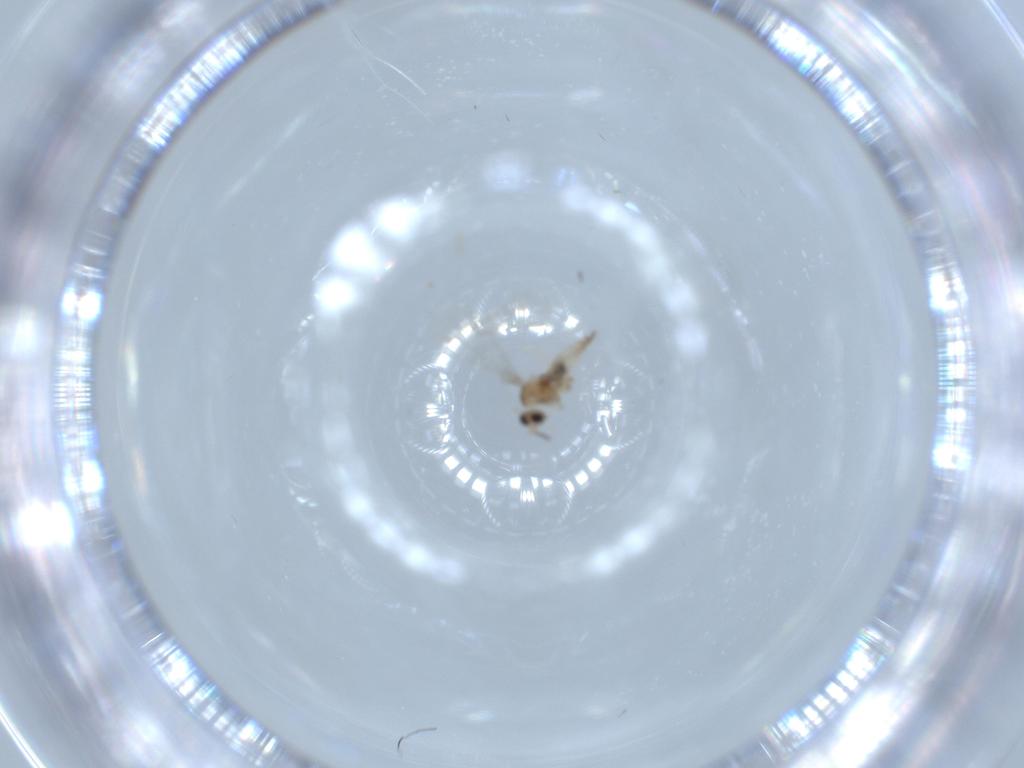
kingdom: Animalia
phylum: Arthropoda
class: Insecta
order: Diptera
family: Cecidomyiidae
